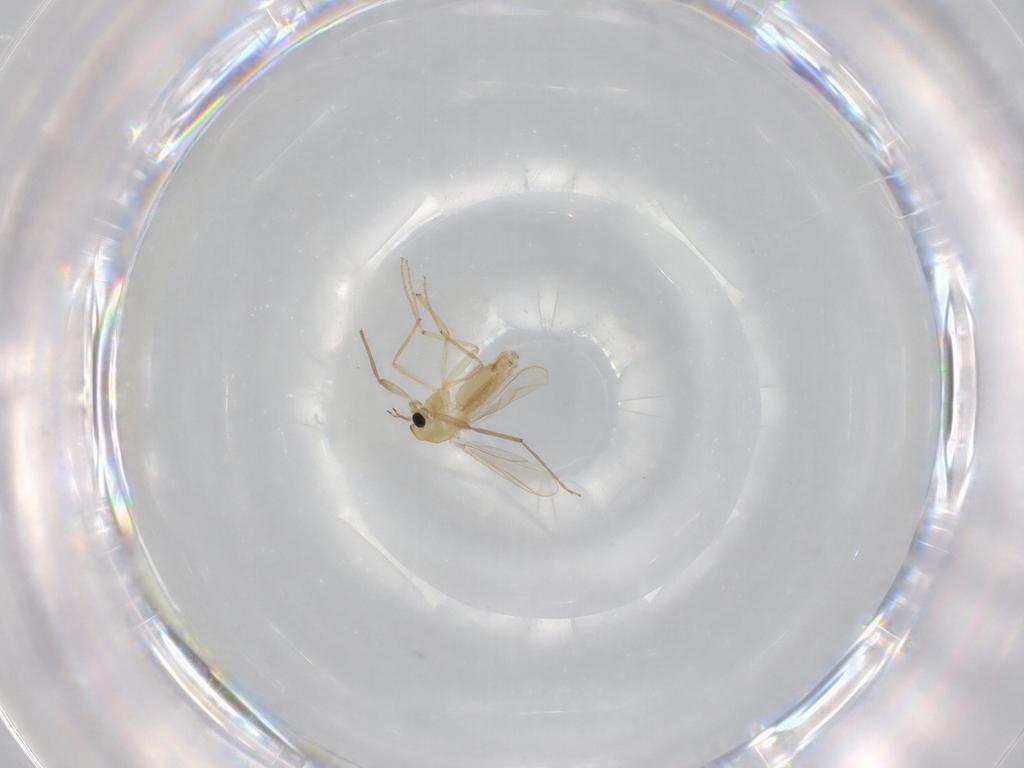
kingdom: Animalia
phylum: Arthropoda
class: Insecta
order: Diptera
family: Chironomidae
